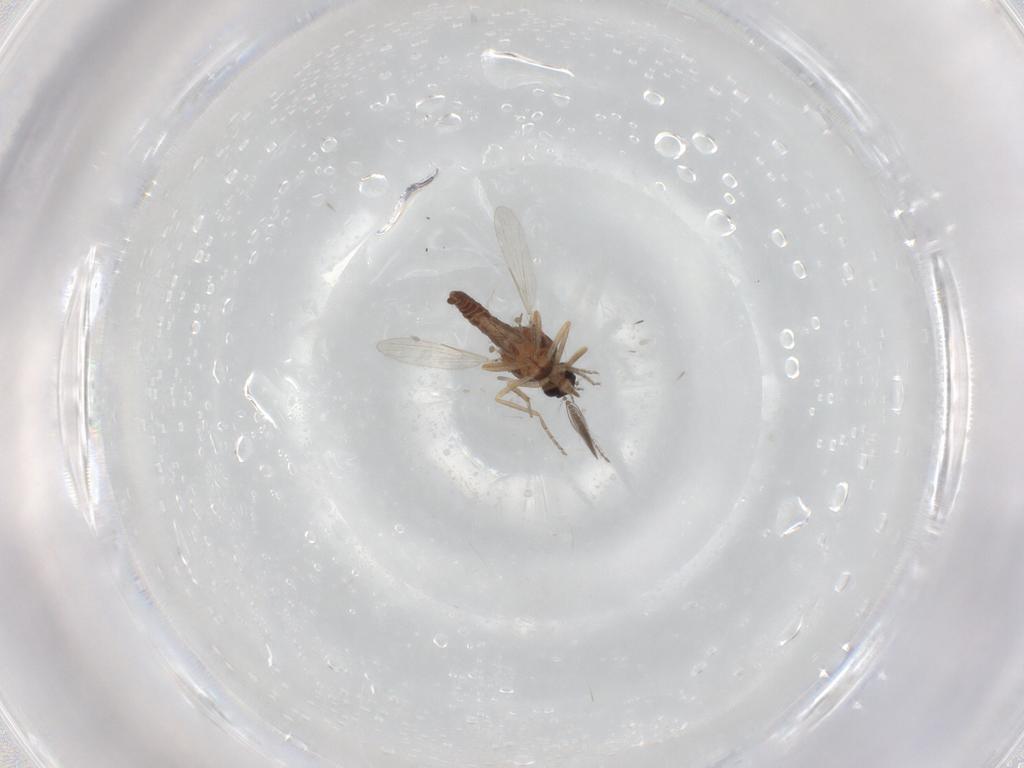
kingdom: Animalia
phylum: Arthropoda
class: Insecta
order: Diptera
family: Ceratopogonidae
